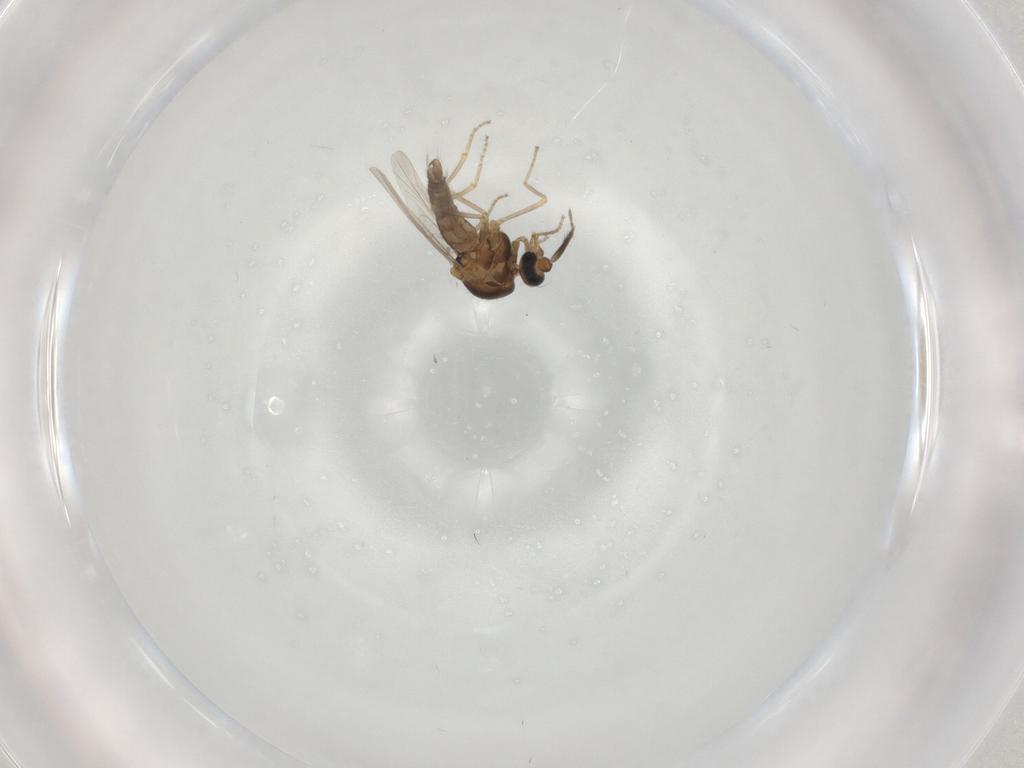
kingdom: Animalia
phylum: Arthropoda
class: Insecta
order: Diptera
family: Ceratopogonidae
